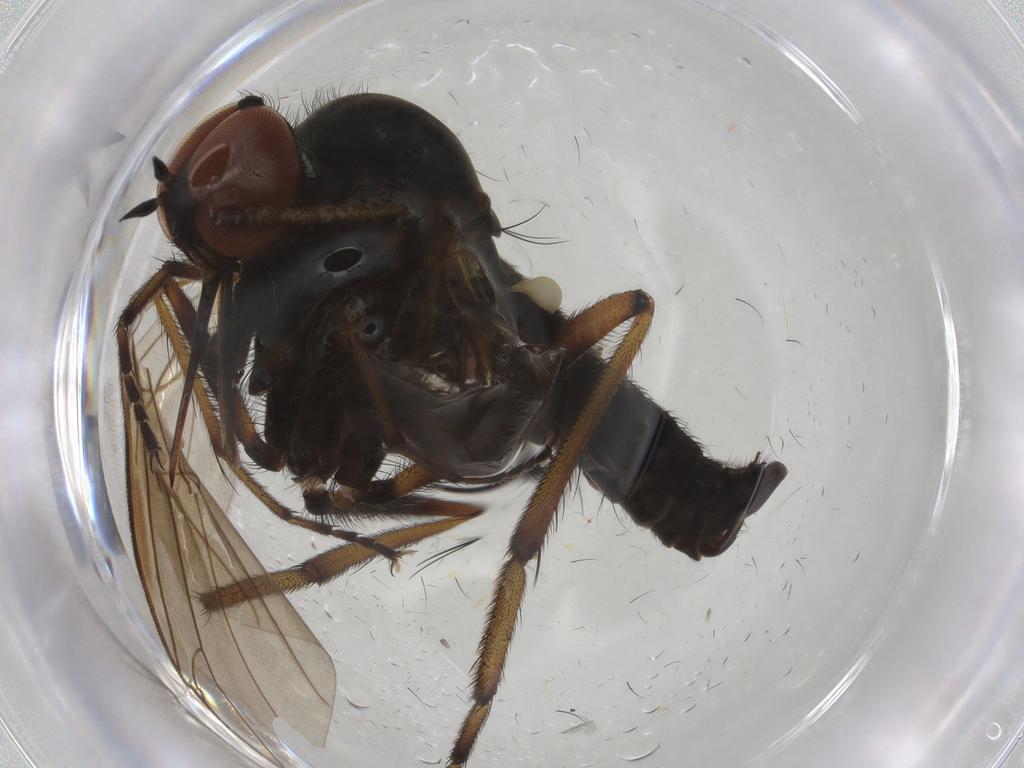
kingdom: Animalia
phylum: Arthropoda
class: Insecta
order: Diptera
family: Empididae
